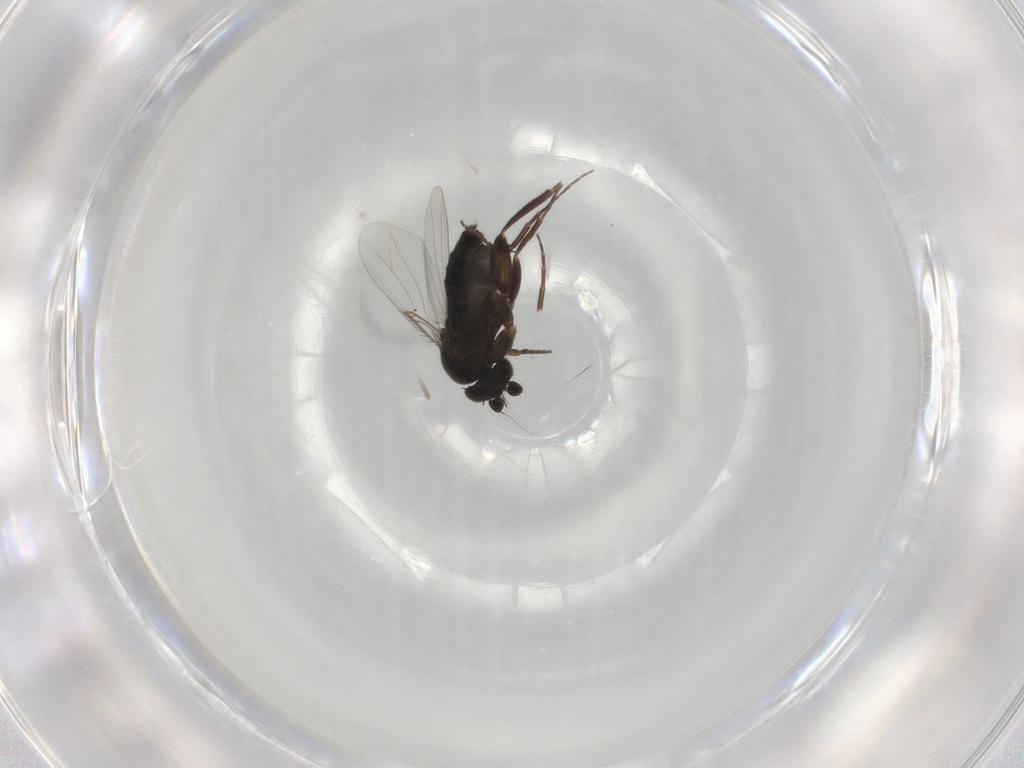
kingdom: Animalia
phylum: Arthropoda
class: Insecta
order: Diptera
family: Phoridae
